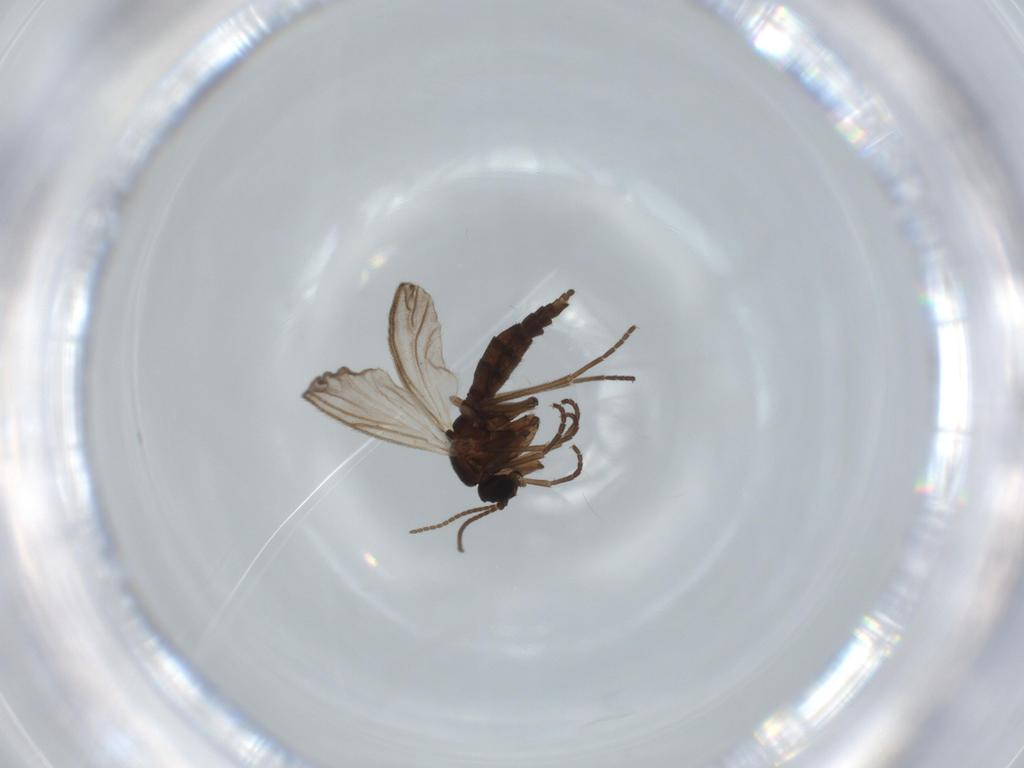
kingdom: Animalia
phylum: Arthropoda
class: Insecta
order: Diptera
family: Sciaridae
